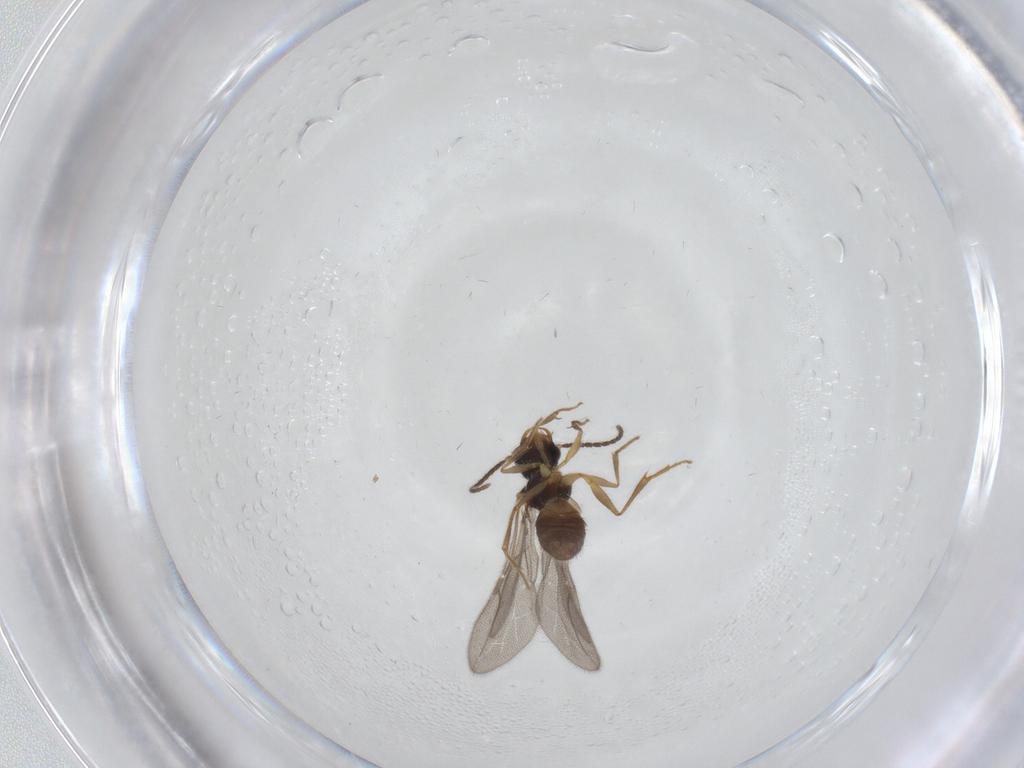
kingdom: Animalia
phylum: Arthropoda
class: Insecta
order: Hymenoptera
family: Bethylidae
